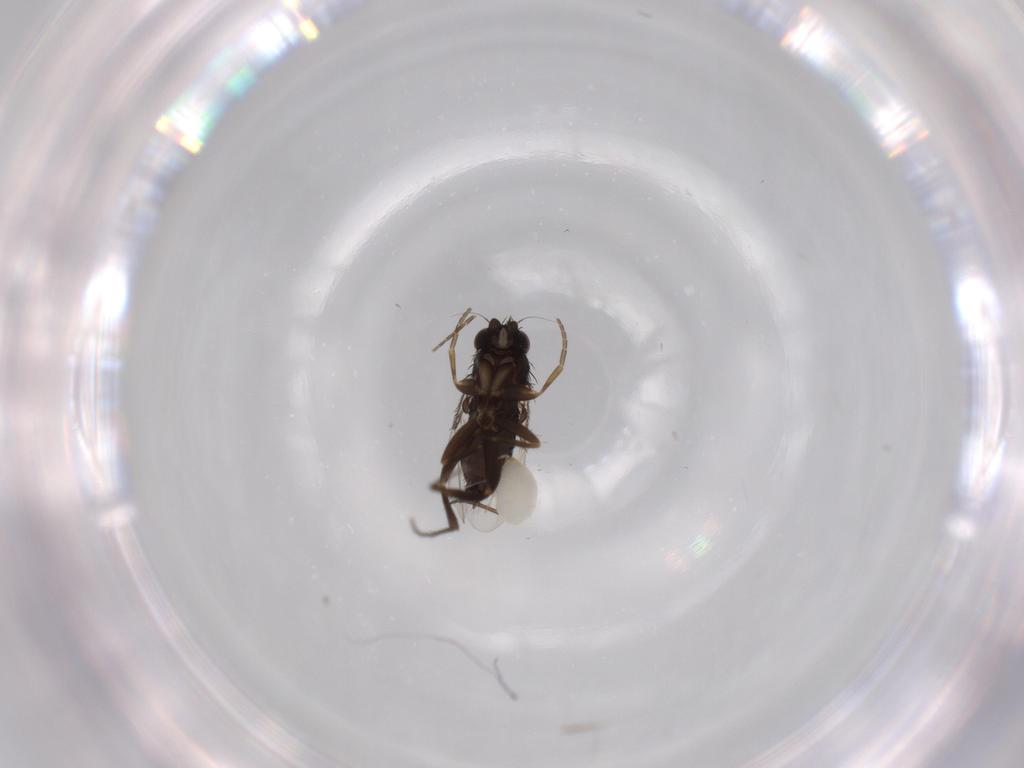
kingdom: Animalia
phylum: Arthropoda
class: Insecta
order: Diptera
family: Phoridae
